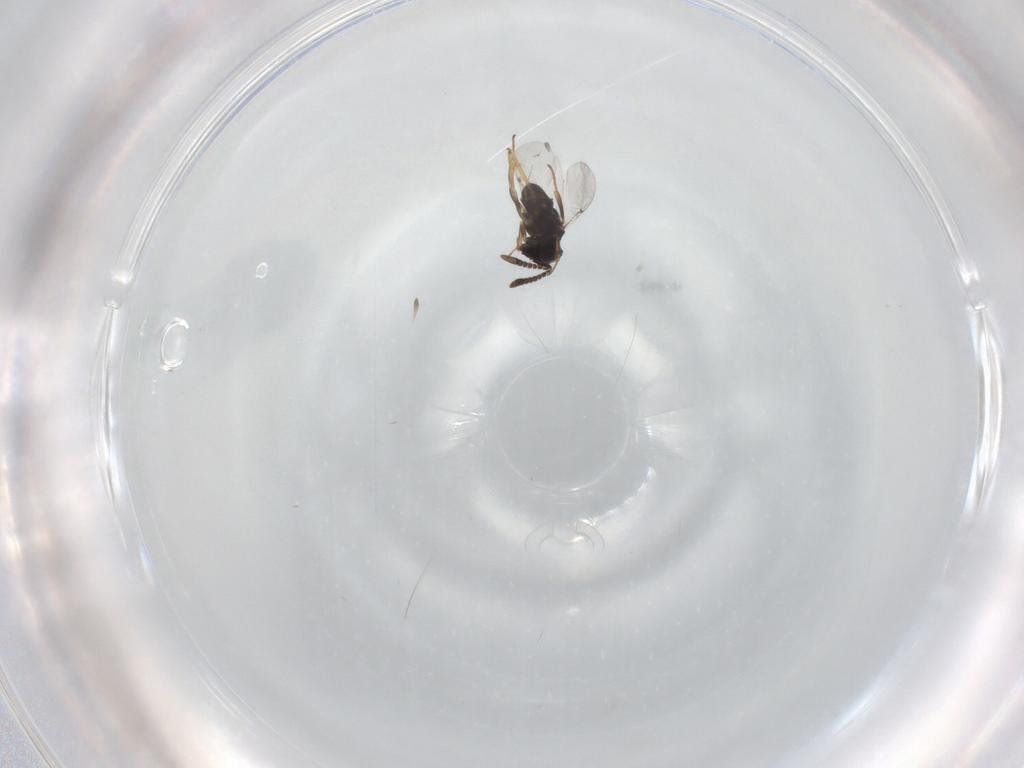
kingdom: Animalia
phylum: Arthropoda
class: Insecta
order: Hymenoptera
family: Encyrtidae
